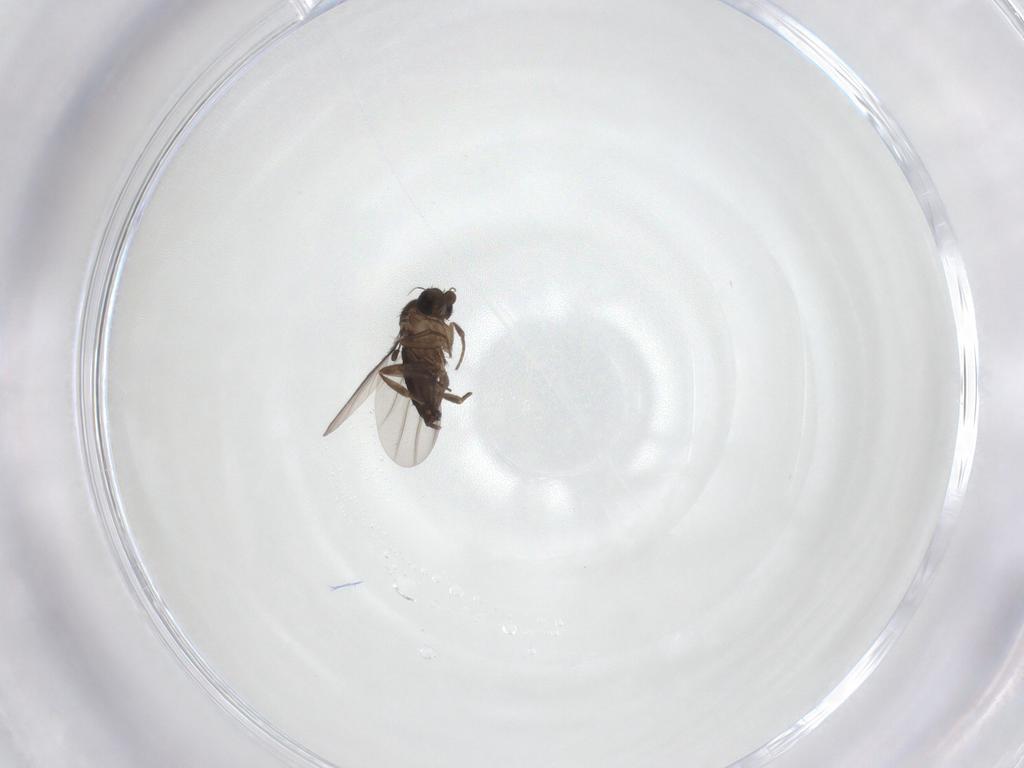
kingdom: Animalia
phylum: Arthropoda
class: Insecta
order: Diptera
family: Phoridae
